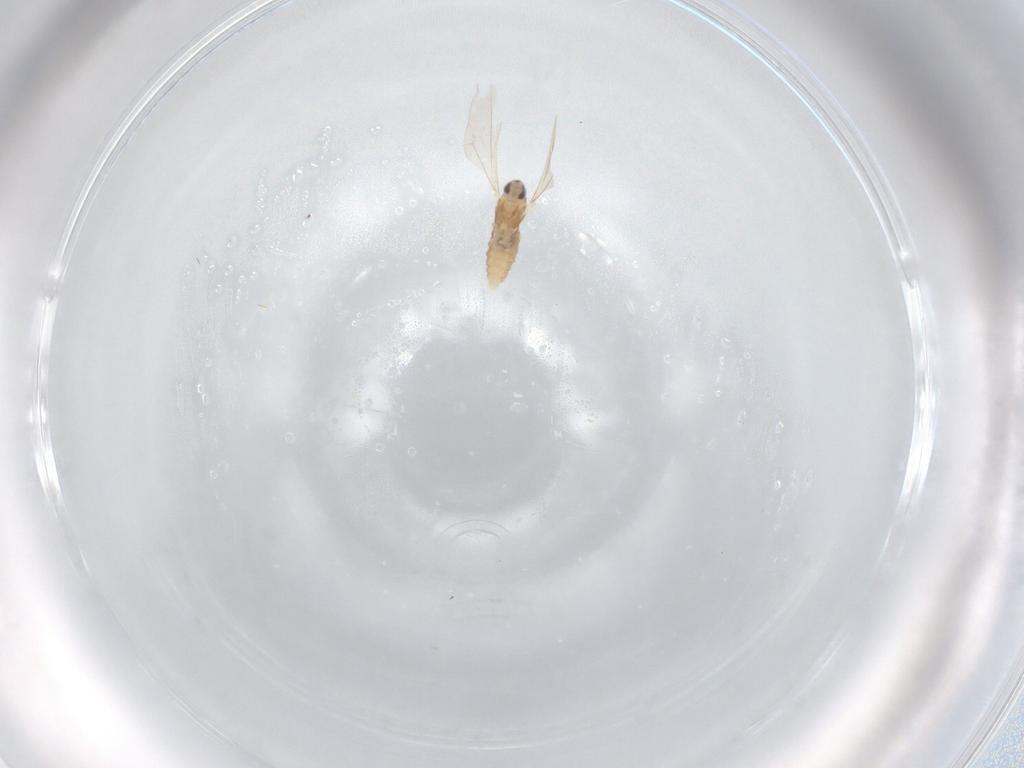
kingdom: Animalia
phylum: Arthropoda
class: Insecta
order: Diptera
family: Cecidomyiidae
